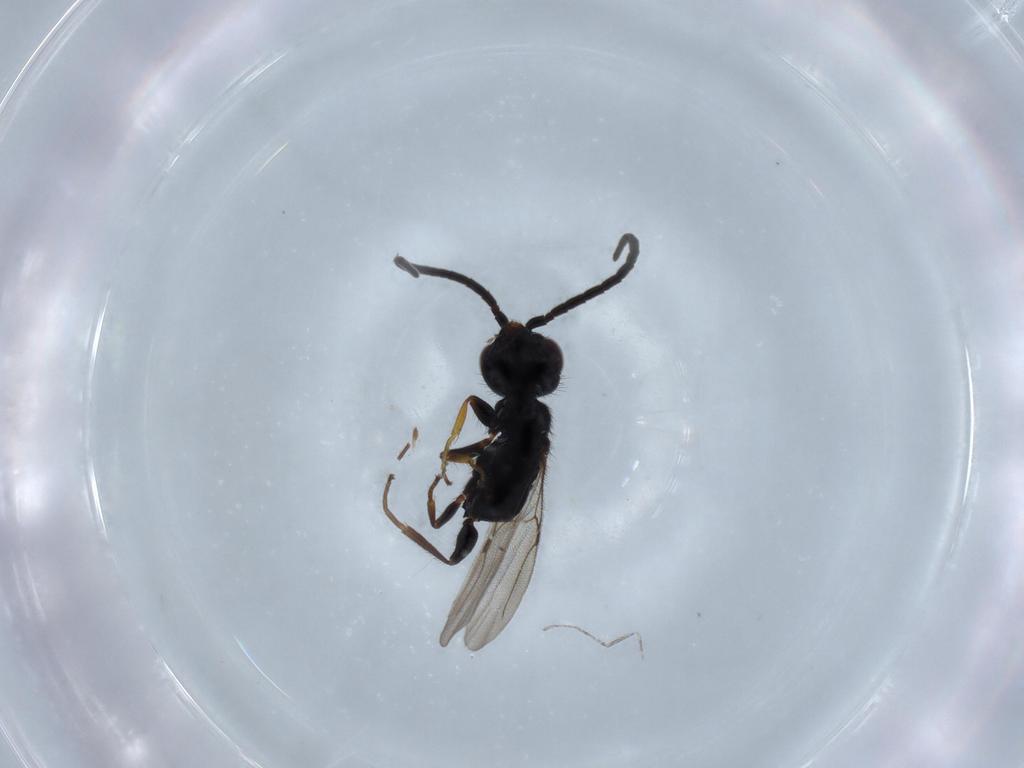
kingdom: Animalia
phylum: Arthropoda
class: Insecta
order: Hymenoptera
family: Bethylidae
